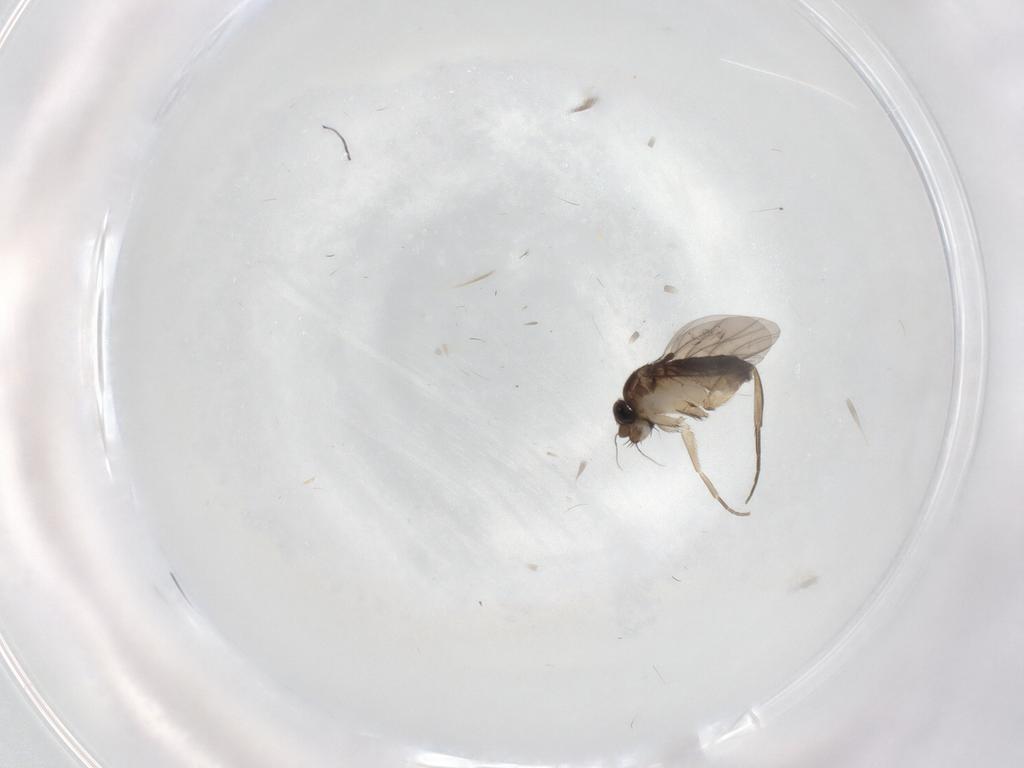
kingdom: Animalia
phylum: Arthropoda
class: Insecta
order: Diptera
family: Phoridae
